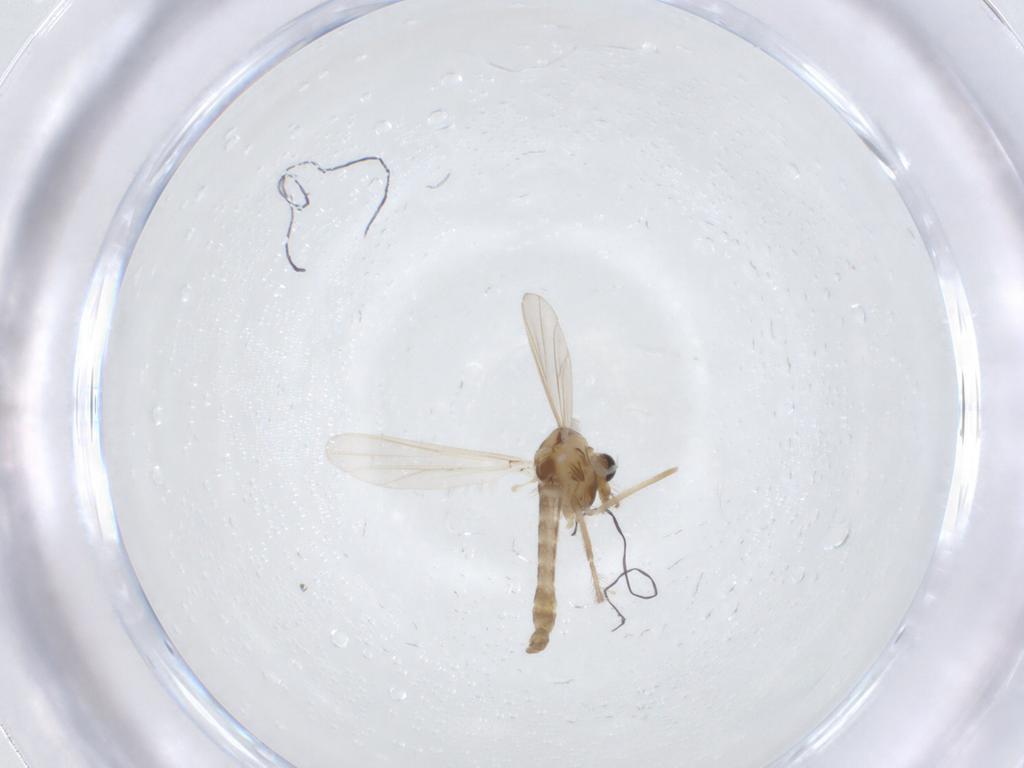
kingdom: Animalia
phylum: Arthropoda
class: Insecta
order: Diptera
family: Chironomidae
